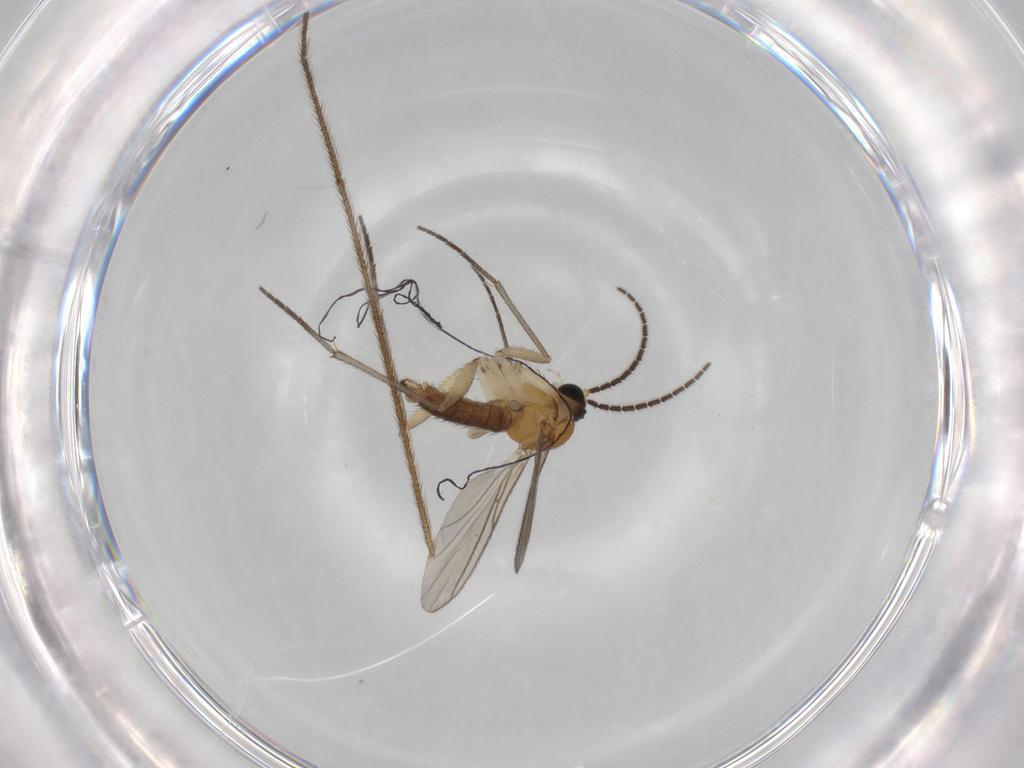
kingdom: Animalia
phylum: Arthropoda
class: Insecta
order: Diptera
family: Limoniidae
